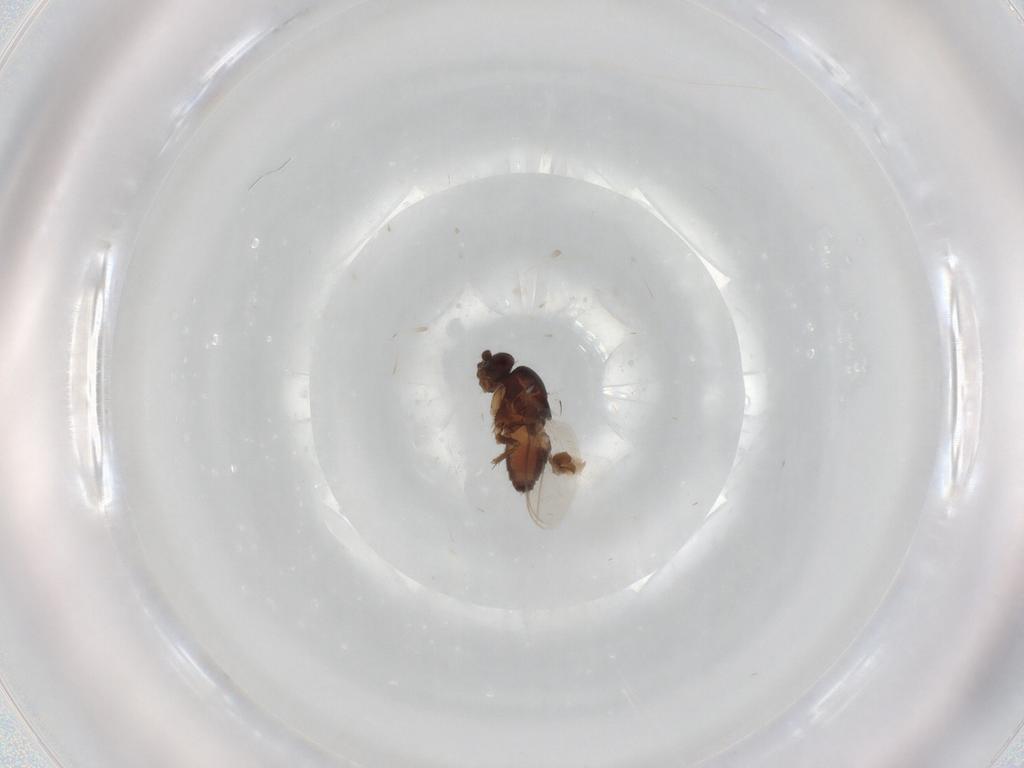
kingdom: Animalia
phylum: Arthropoda
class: Insecta
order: Diptera
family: Sphaeroceridae
